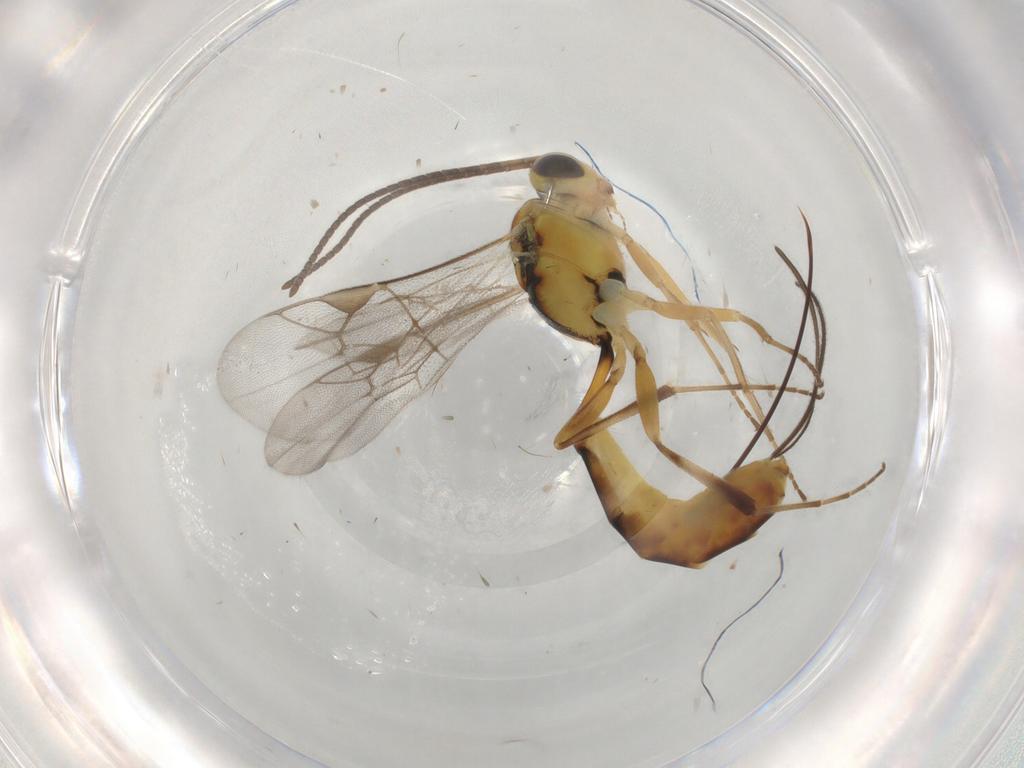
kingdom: Animalia
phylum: Arthropoda
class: Insecta
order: Hymenoptera
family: Ichneumonidae
